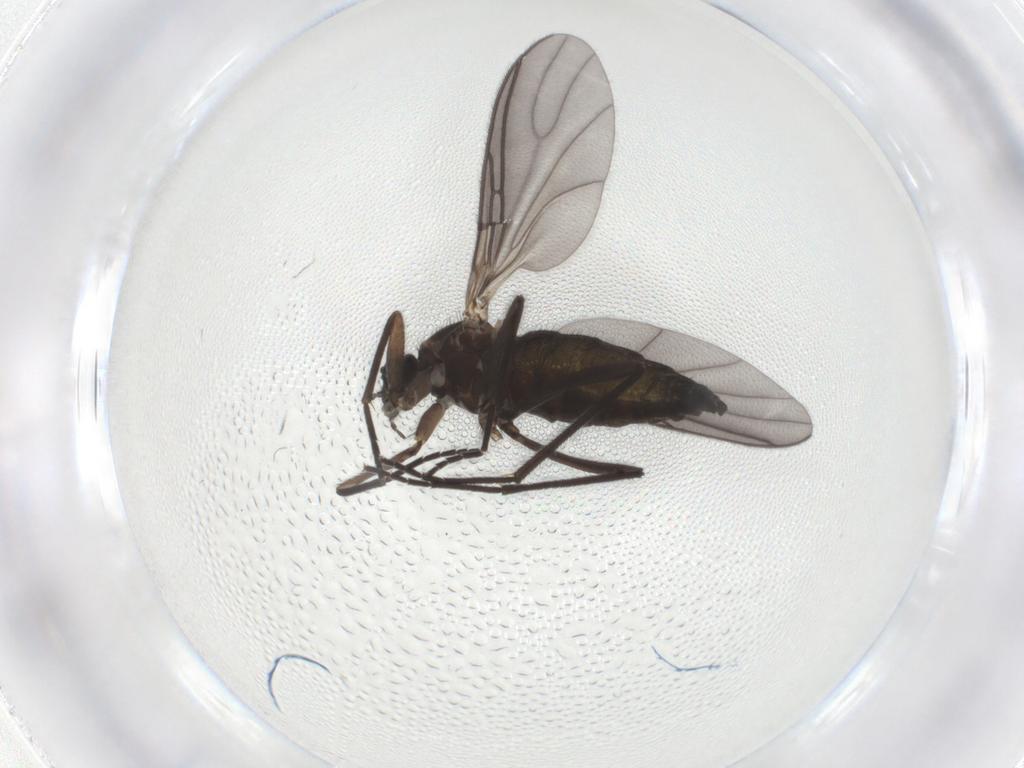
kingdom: Animalia
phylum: Arthropoda
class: Insecta
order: Diptera
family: Sciaridae
